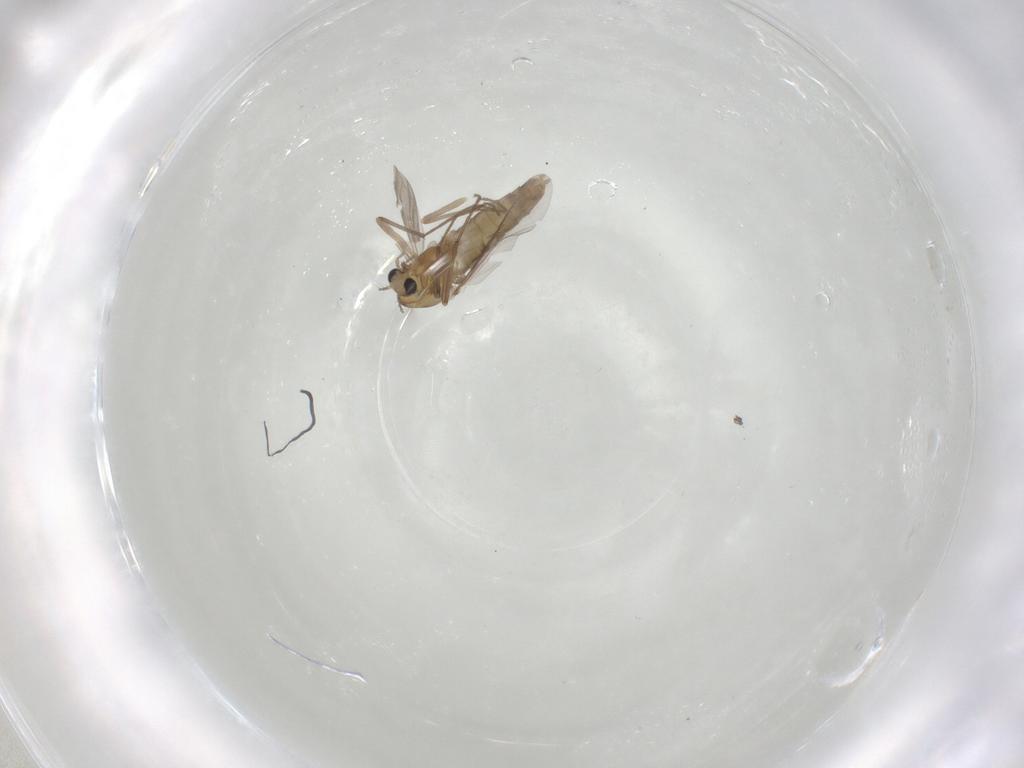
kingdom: Animalia
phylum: Arthropoda
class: Insecta
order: Diptera
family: Chironomidae
